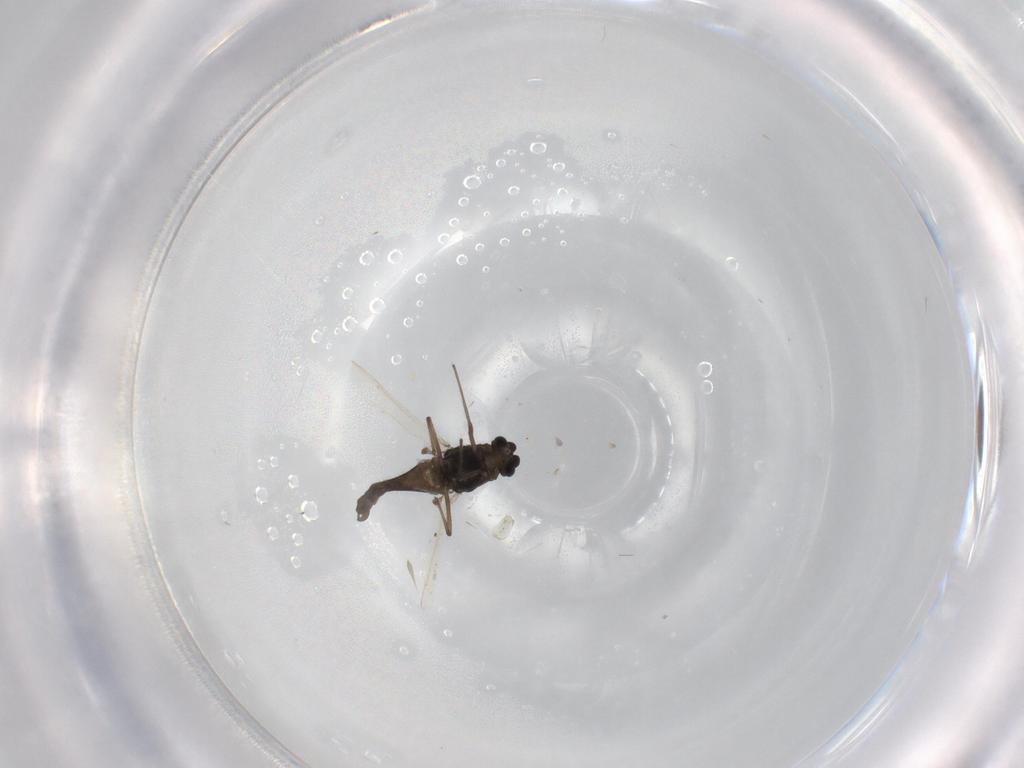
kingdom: Animalia
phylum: Arthropoda
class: Insecta
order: Diptera
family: Chironomidae
